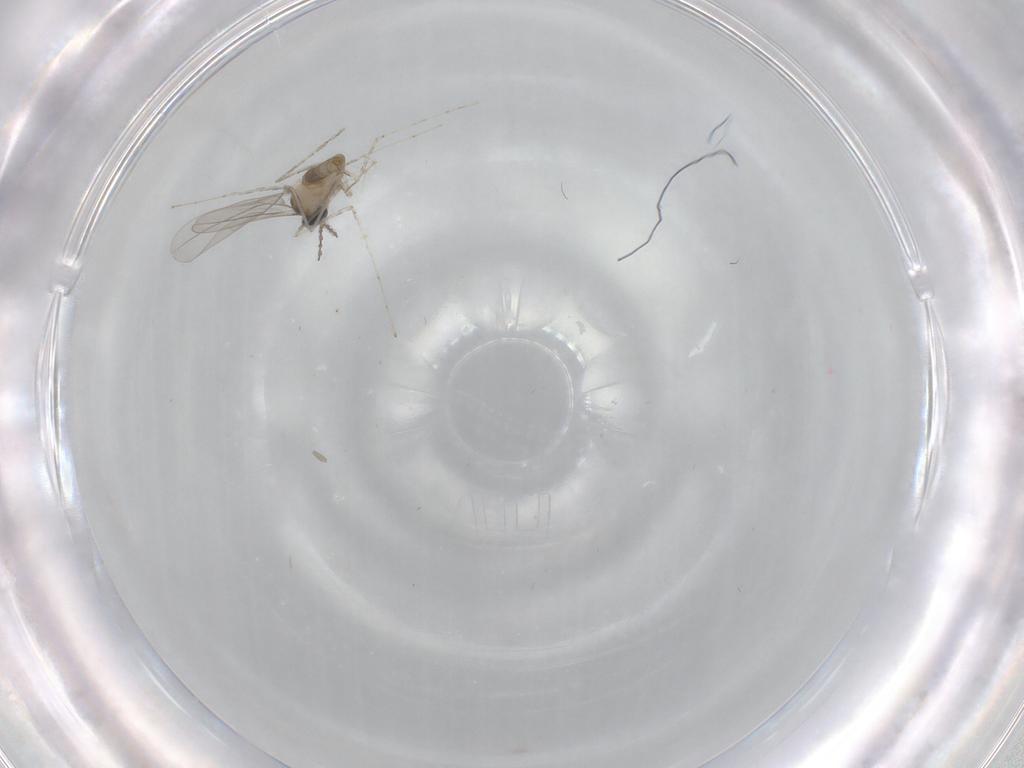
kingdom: Animalia
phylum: Arthropoda
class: Insecta
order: Diptera
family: Cecidomyiidae
